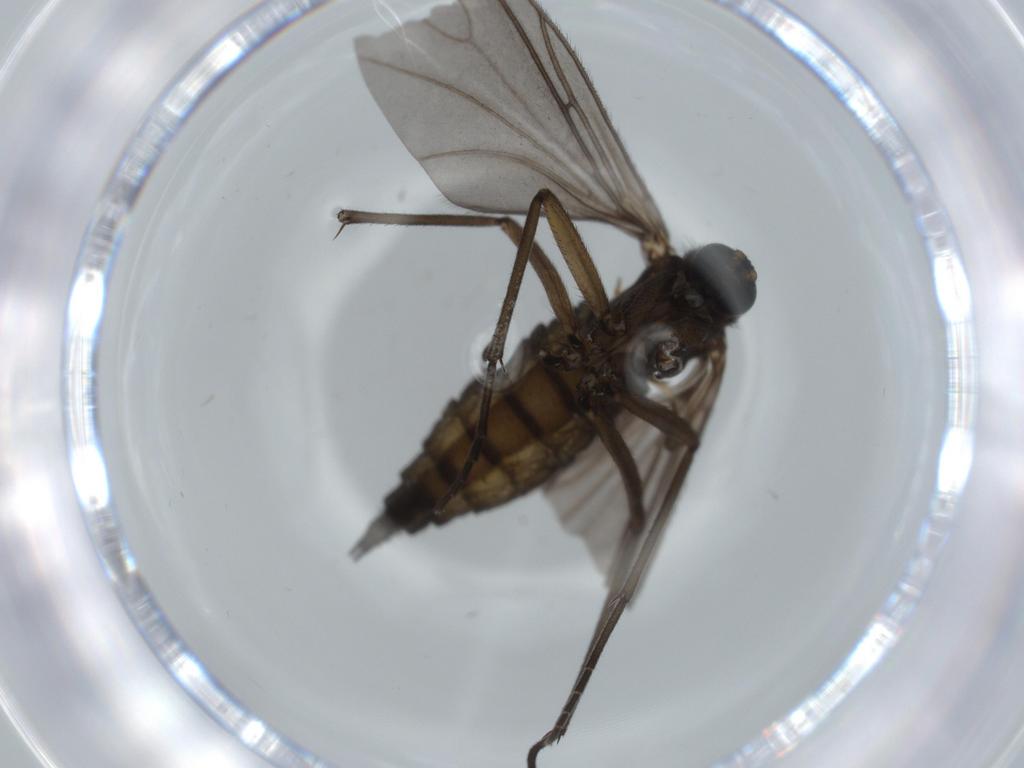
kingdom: Animalia
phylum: Arthropoda
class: Insecta
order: Diptera
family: Sciaridae
